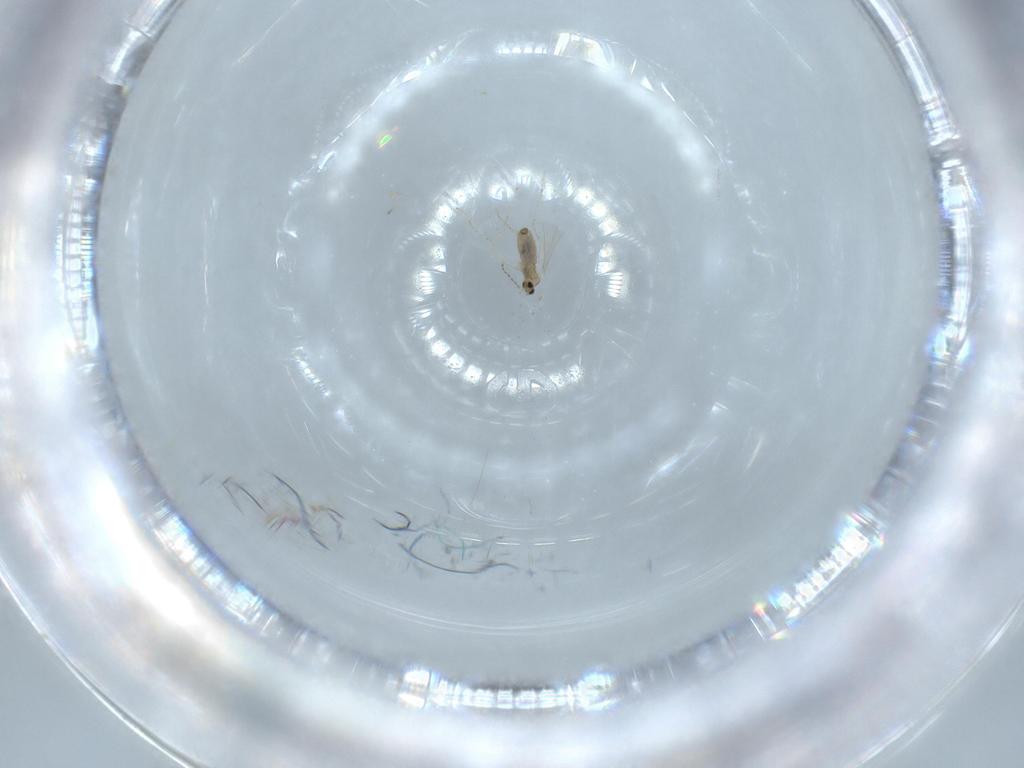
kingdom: Animalia
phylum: Arthropoda
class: Insecta
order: Diptera
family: Cecidomyiidae
